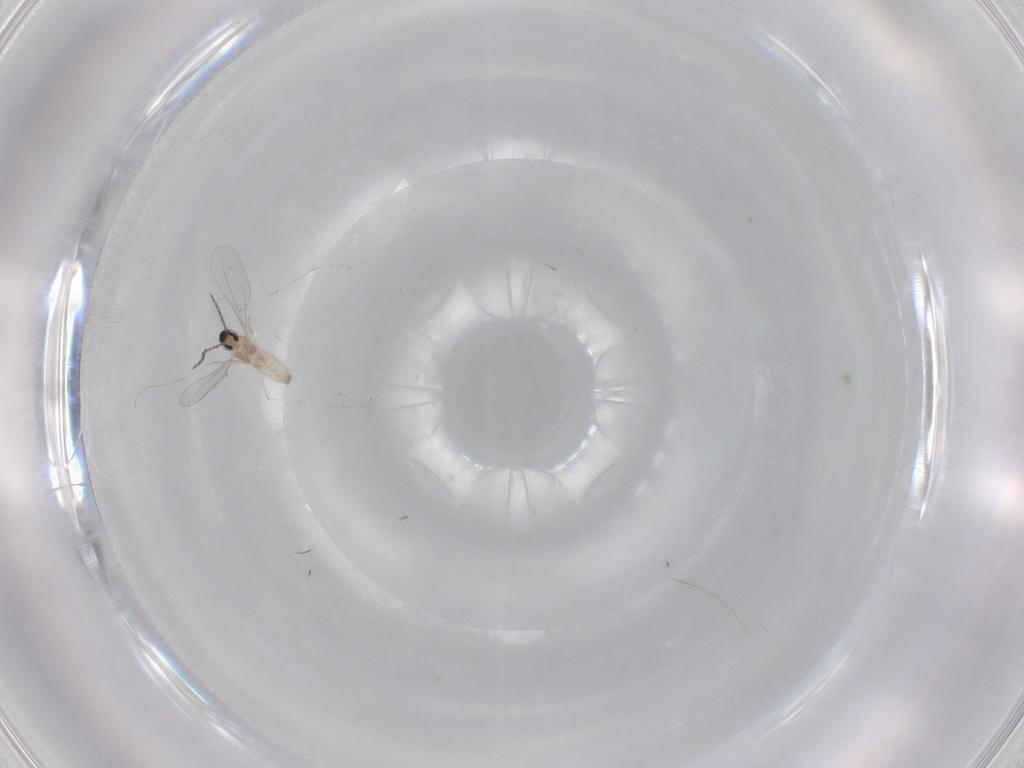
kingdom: Animalia
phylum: Arthropoda
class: Insecta
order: Diptera
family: Cecidomyiidae
